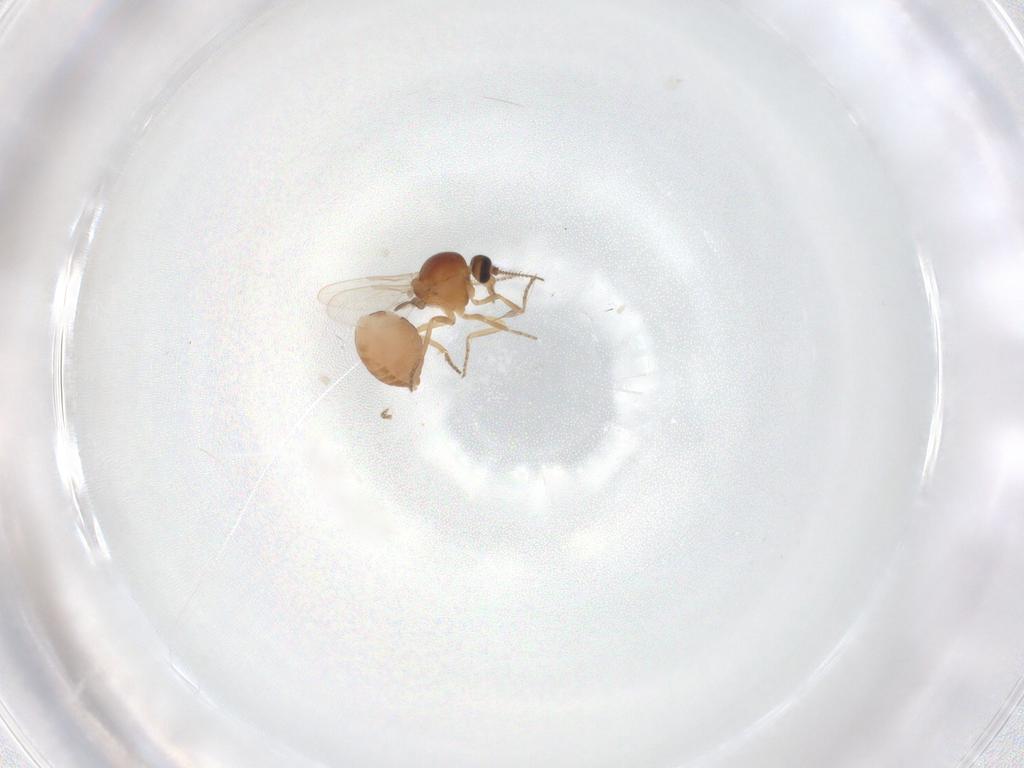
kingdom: Animalia
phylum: Arthropoda
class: Insecta
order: Diptera
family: Ceratopogonidae
